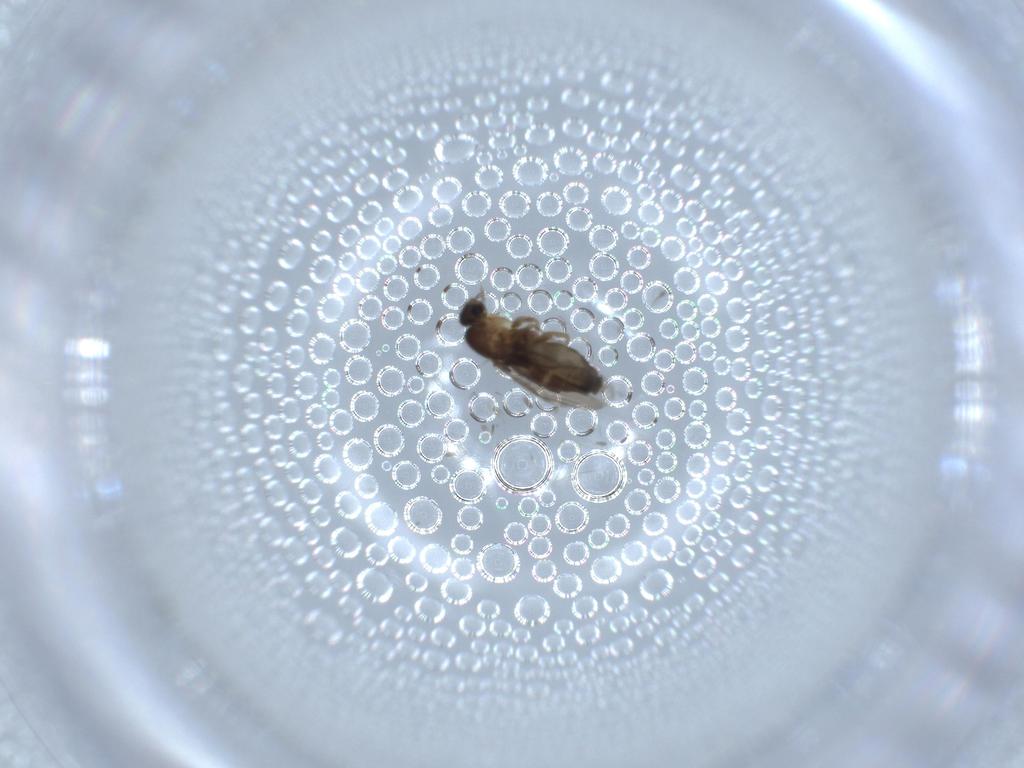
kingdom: Animalia
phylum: Arthropoda
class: Insecta
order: Diptera
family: Phoridae
